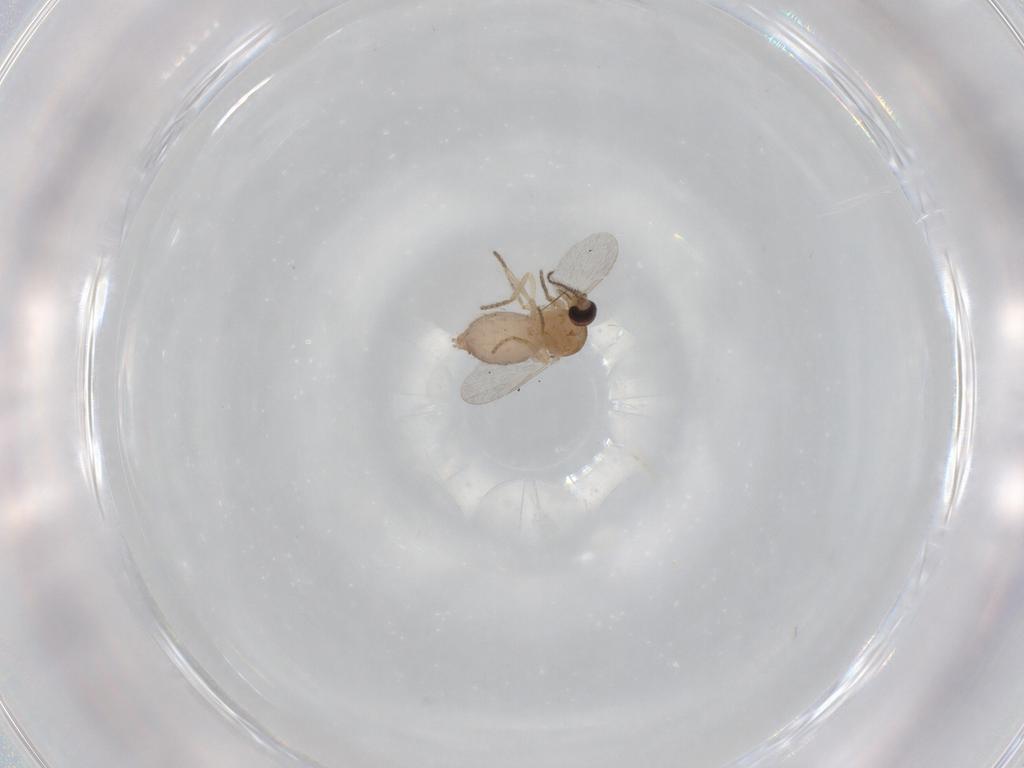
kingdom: Animalia
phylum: Arthropoda
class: Insecta
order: Diptera
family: Ceratopogonidae
